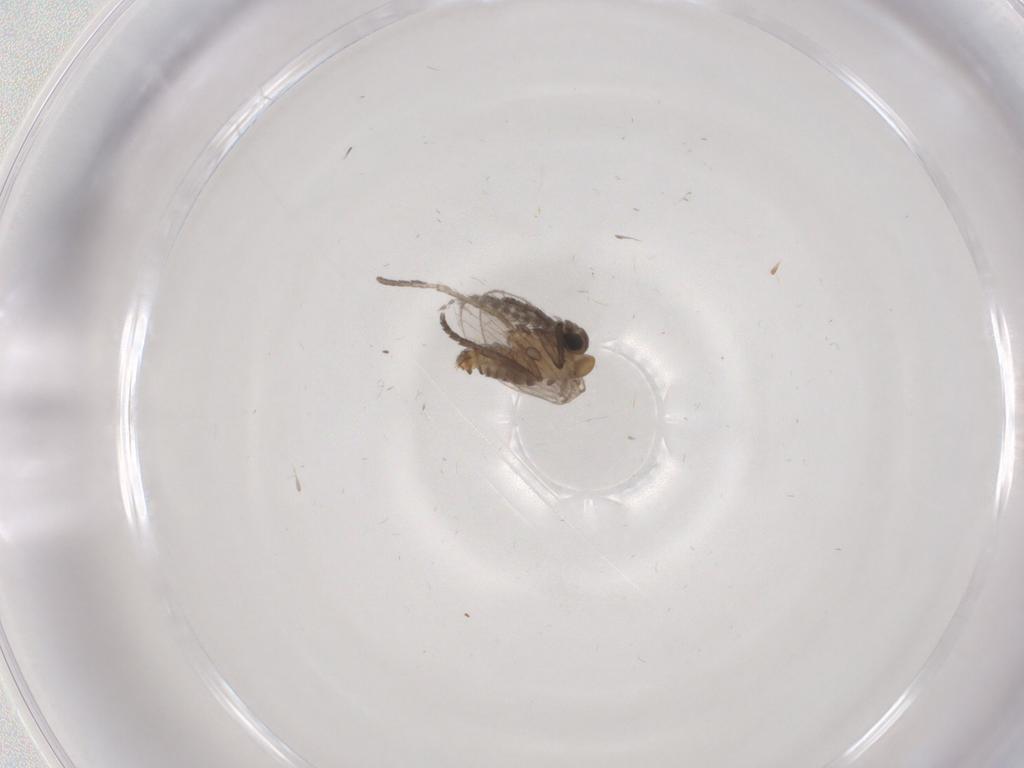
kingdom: Animalia
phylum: Arthropoda
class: Insecta
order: Diptera
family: Psychodidae
